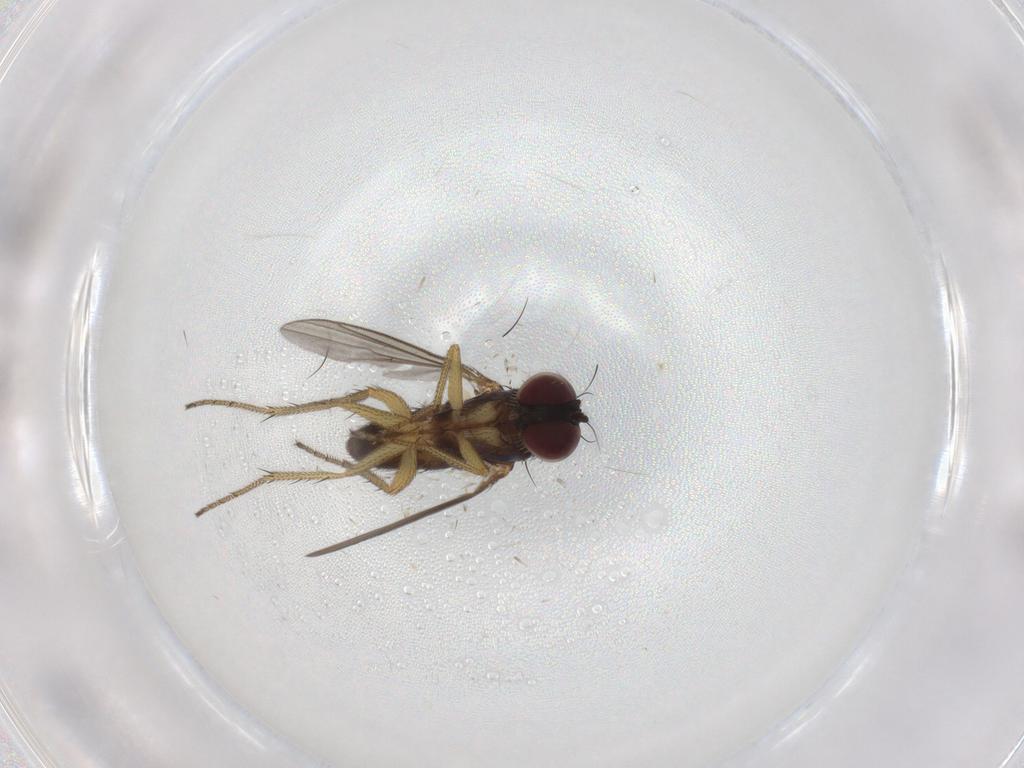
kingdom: Animalia
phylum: Arthropoda
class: Insecta
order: Diptera
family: Dolichopodidae
